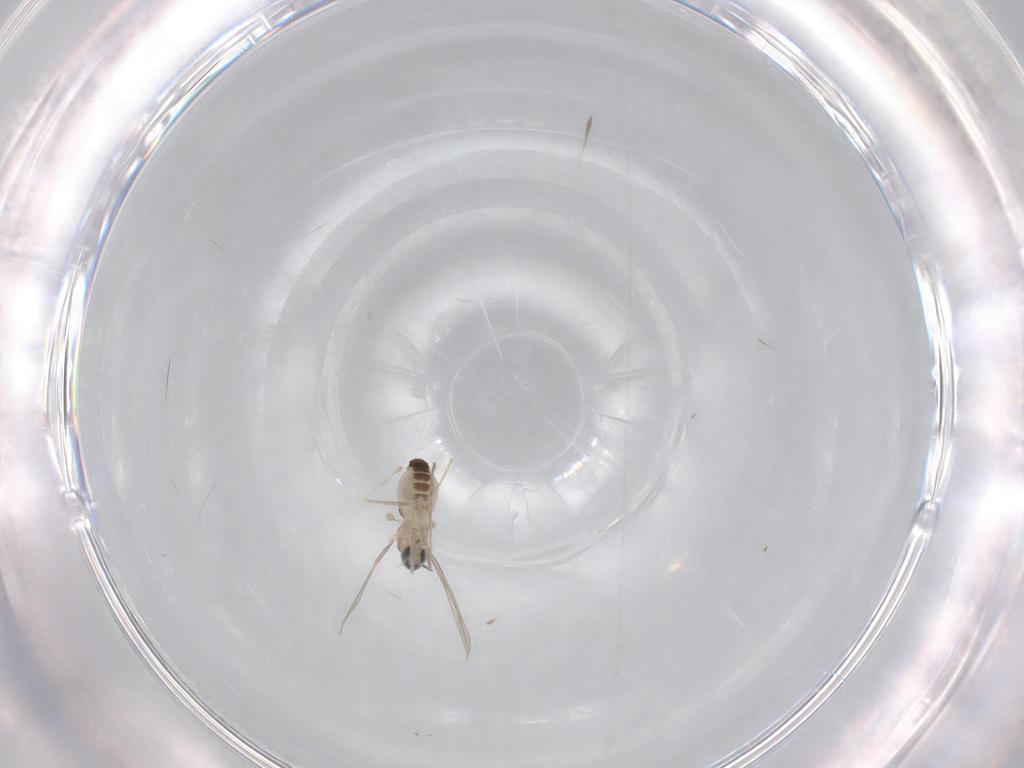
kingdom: Animalia
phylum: Arthropoda
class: Insecta
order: Diptera
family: Cecidomyiidae
